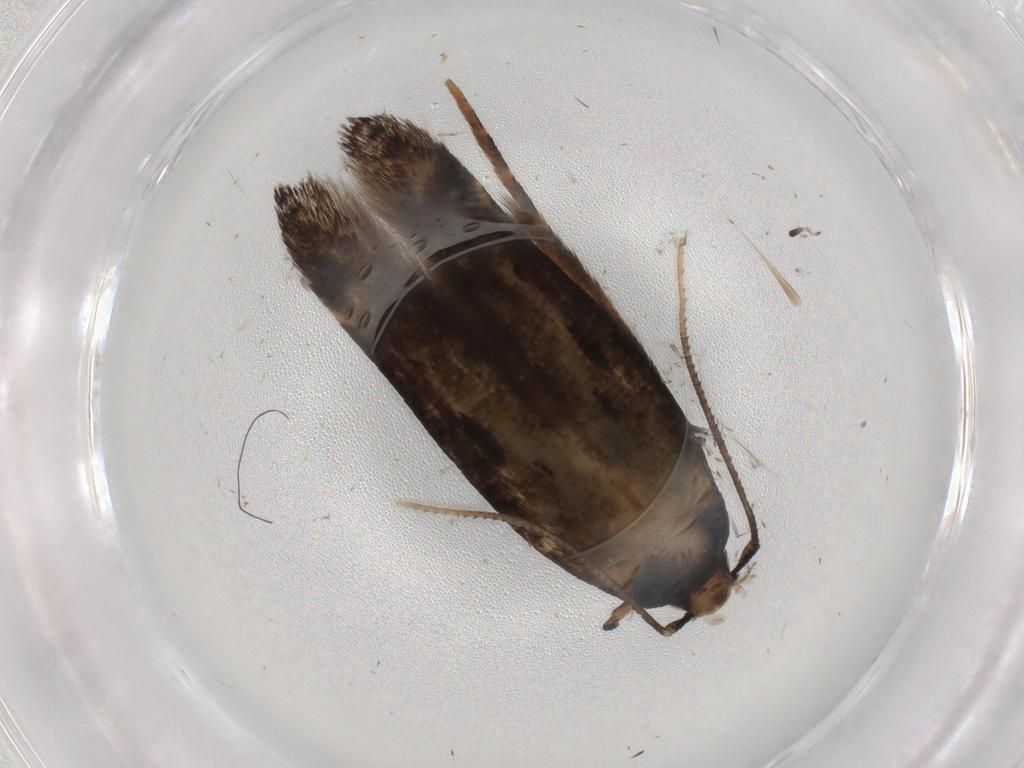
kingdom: Animalia
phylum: Arthropoda
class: Insecta
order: Lepidoptera
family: Cosmopterigidae
